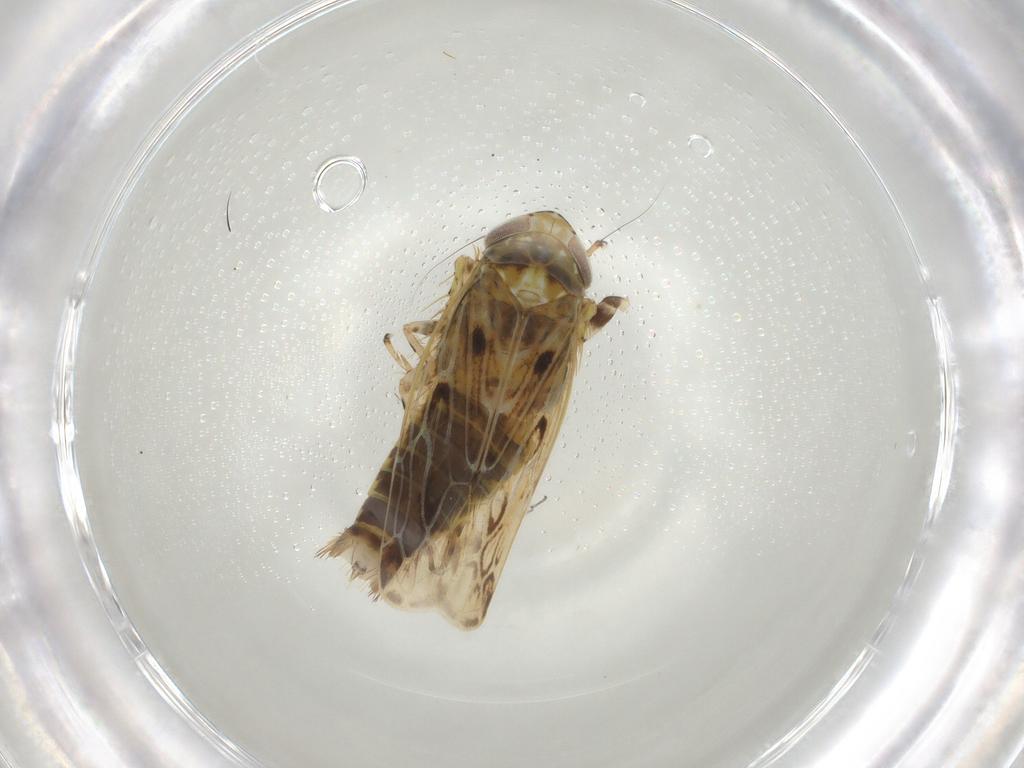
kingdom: Animalia
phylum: Arthropoda
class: Insecta
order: Hemiptera
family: Cicadellidae
